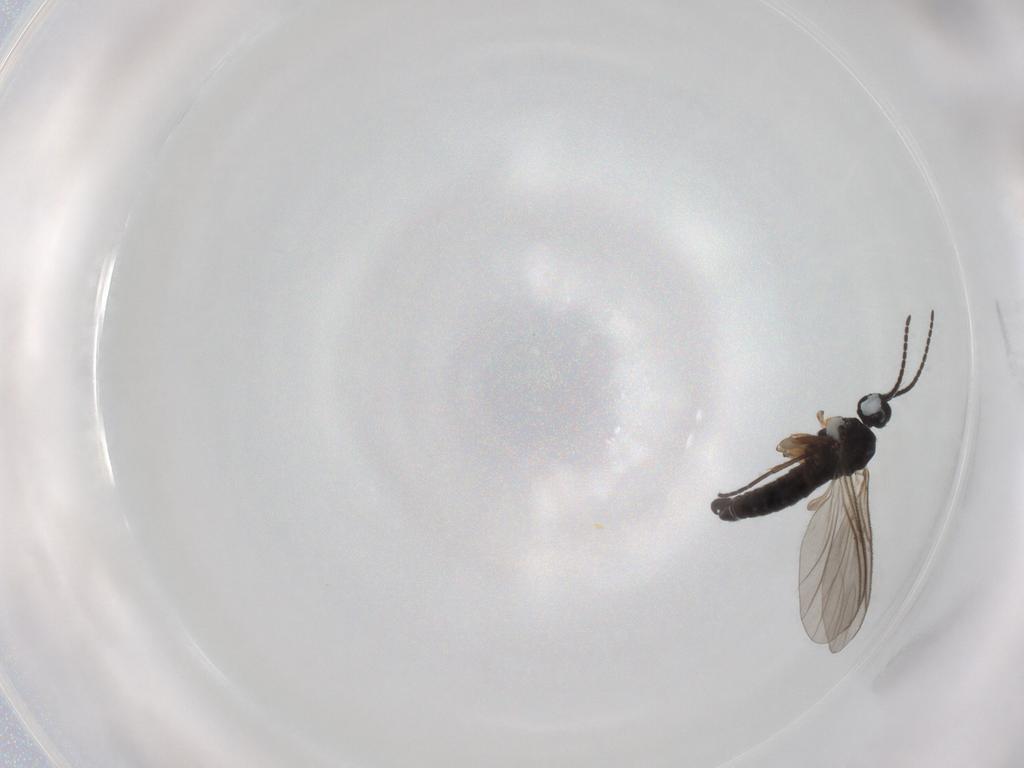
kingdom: Animalia
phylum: Arthropoda
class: Insecta
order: Diptera
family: Sciaridae
